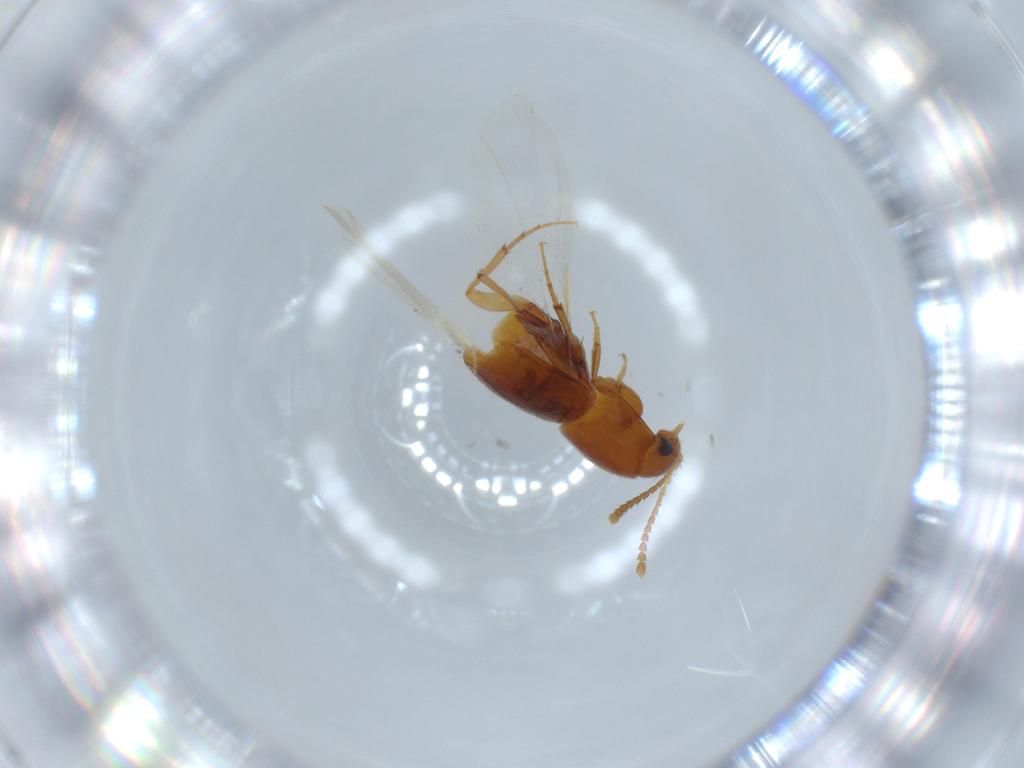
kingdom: Animalia
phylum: Arthropoda
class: Insecta
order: Coleoptera
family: Staphylinidae
